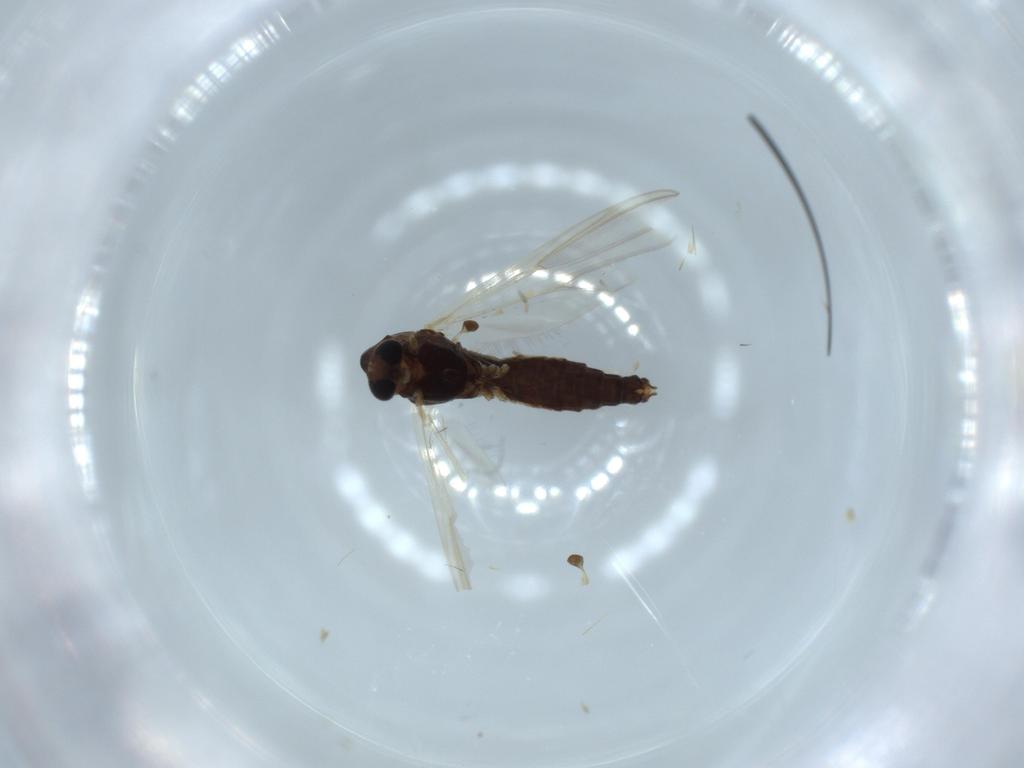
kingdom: Animalia
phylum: Arthropoda
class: Insecta
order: Diptera
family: Chironomidae
